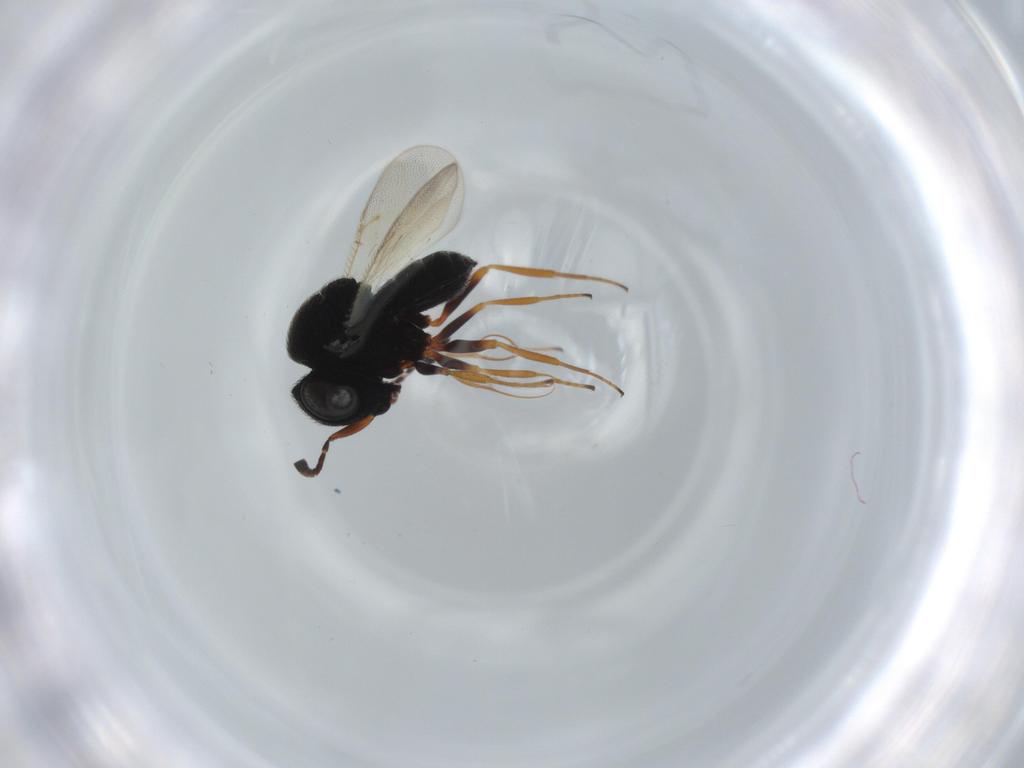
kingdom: Animalia
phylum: Arthropoda
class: Insecta
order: Hymenoptera
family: Scelionidae
